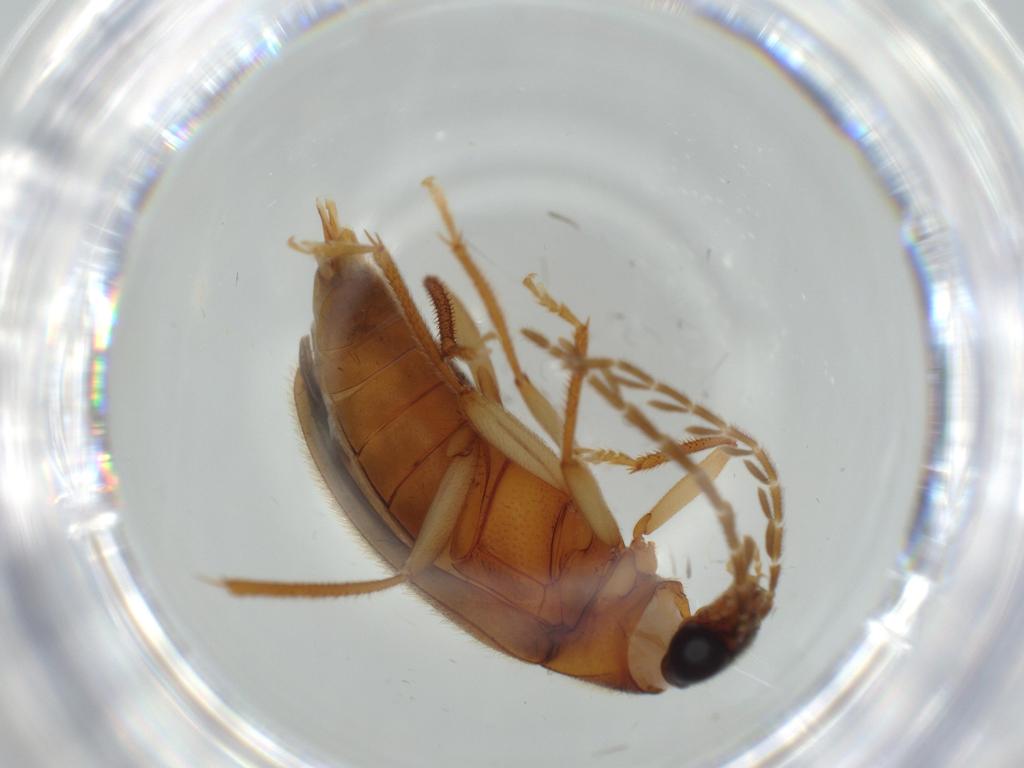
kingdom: Animalia
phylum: Arthropoda
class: Insecta
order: Coleoptera
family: Ptilodactylidae
